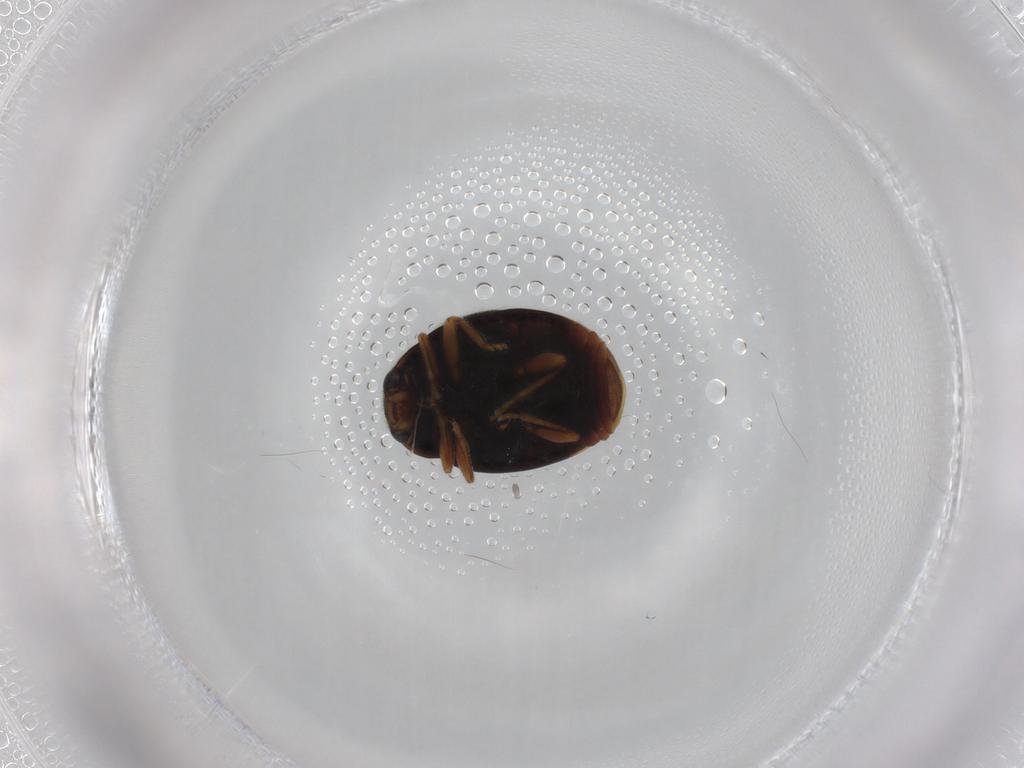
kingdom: Animalia
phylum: Arthropoda
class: Insecta
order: Coleoptera
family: Coccinellidae
